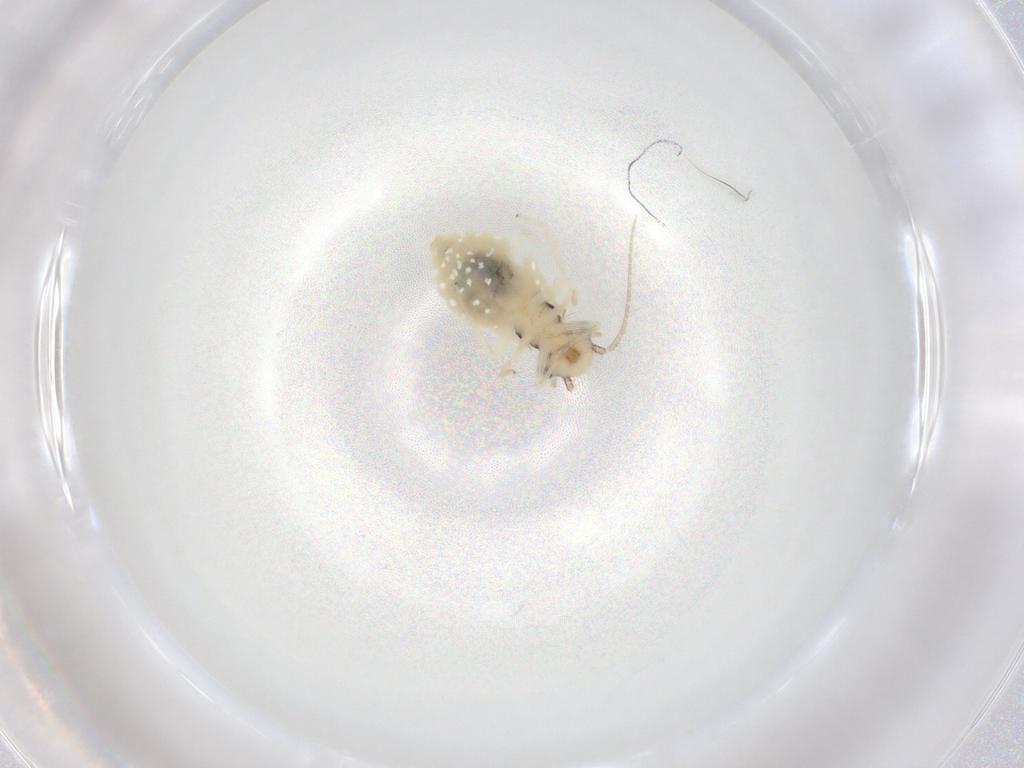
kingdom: Animalia
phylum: Arthropoda
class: Insecta
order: Psocodea
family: Philotarsidae
